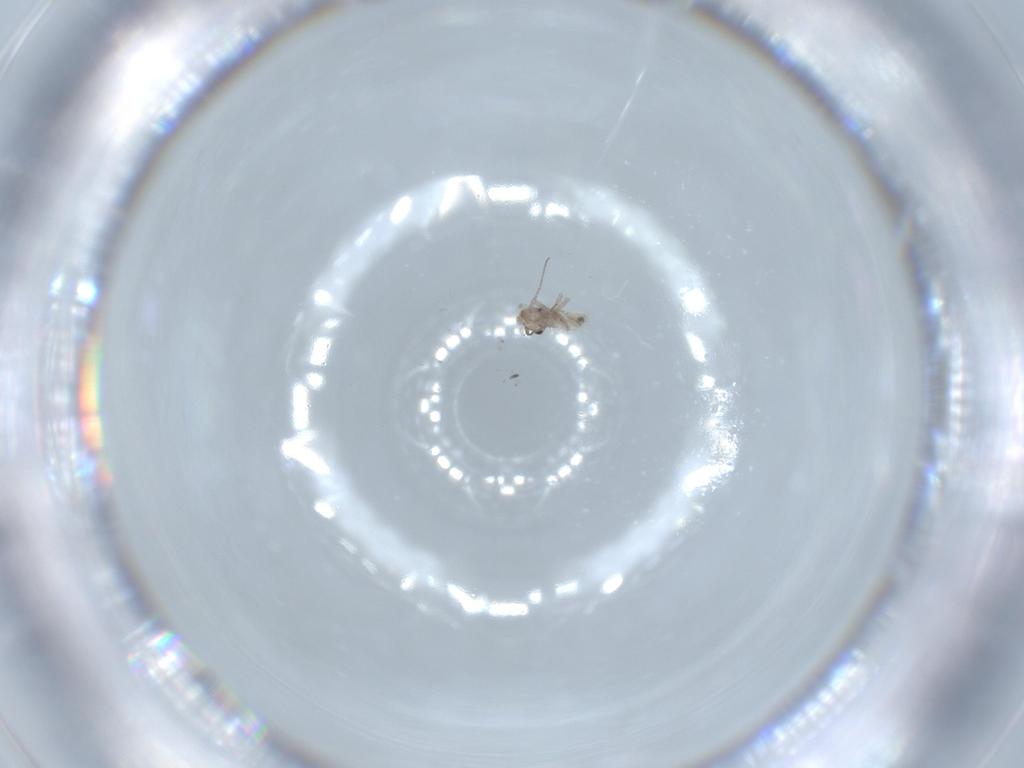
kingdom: Animalia
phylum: Arthropoda
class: Insecta
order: Diptera
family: Cecidomyiidae
